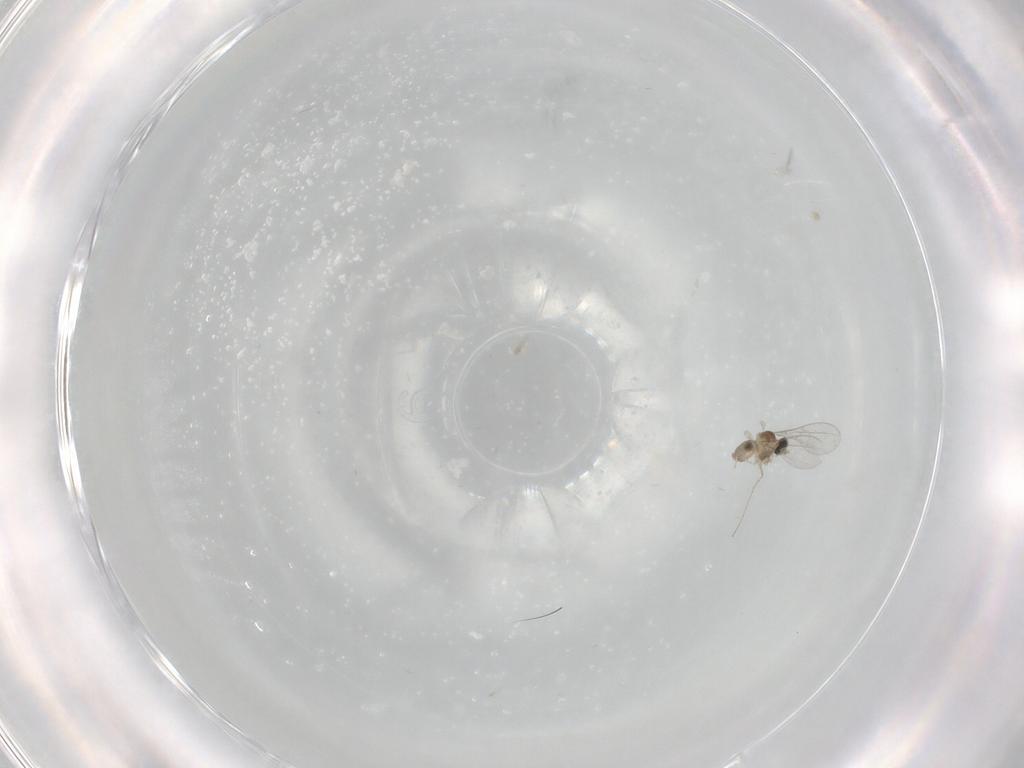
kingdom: Animalia
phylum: Arthropoda
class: Insecta
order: Diptera
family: Cecidomyiidae
